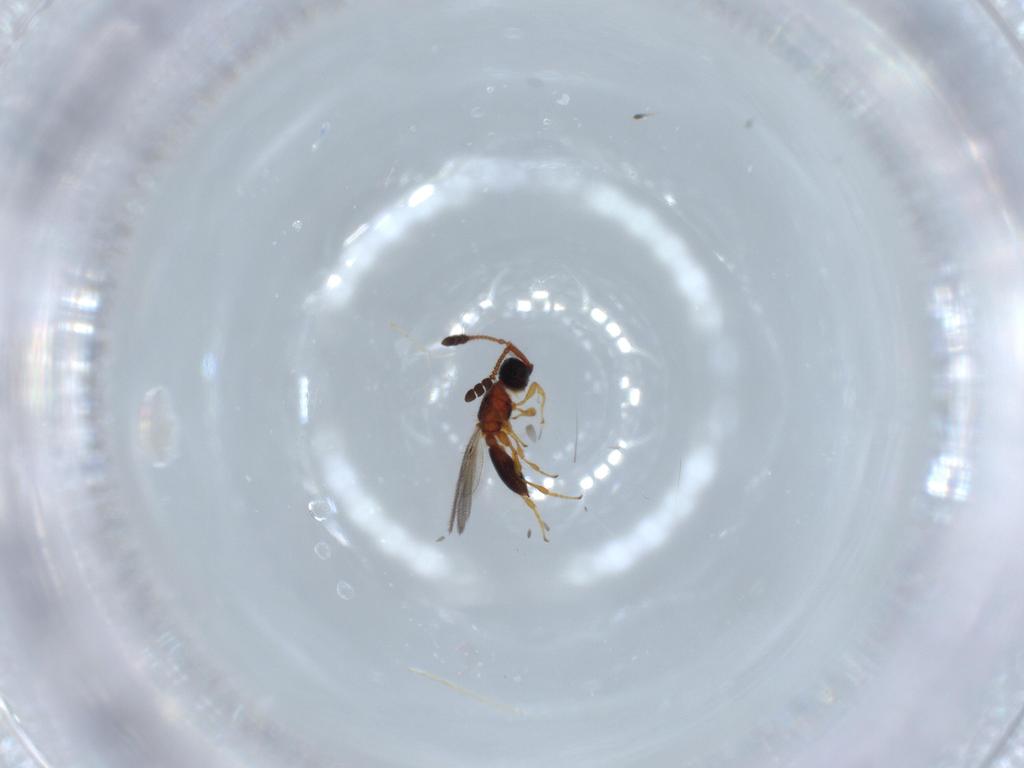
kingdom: Animalia
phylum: Arthropoda
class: Insecta
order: Hymenoptera
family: Diapriidae
